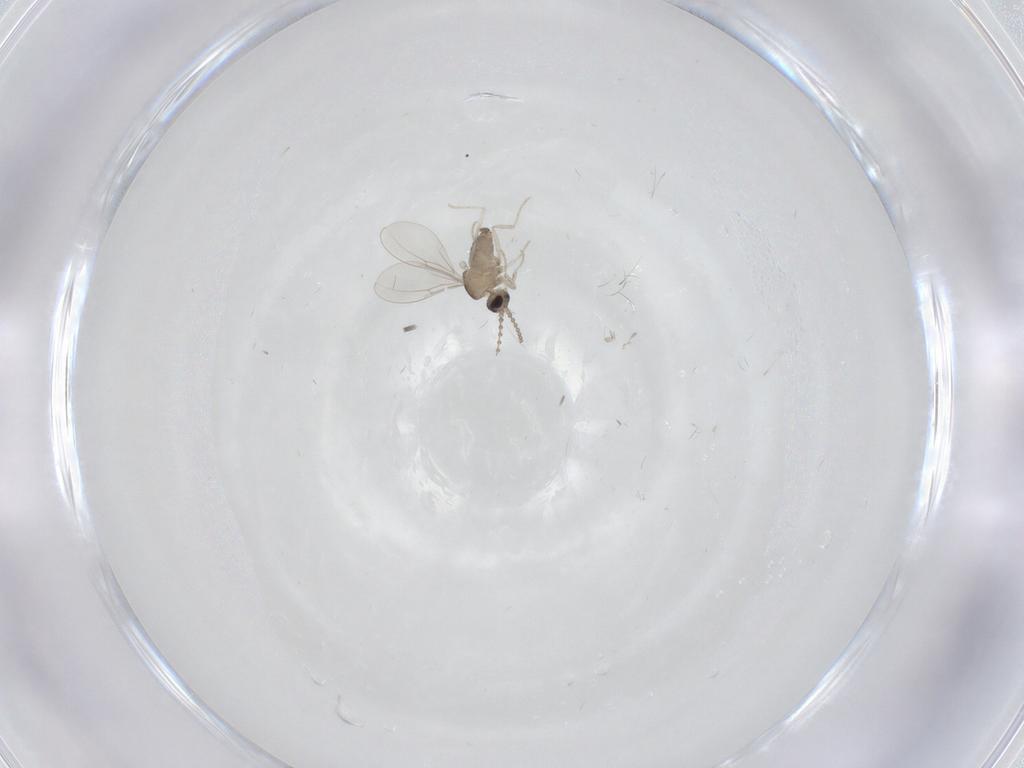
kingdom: Animalia
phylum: Arthropoda
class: Insecta
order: Diptera
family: Cecidomyiidae
